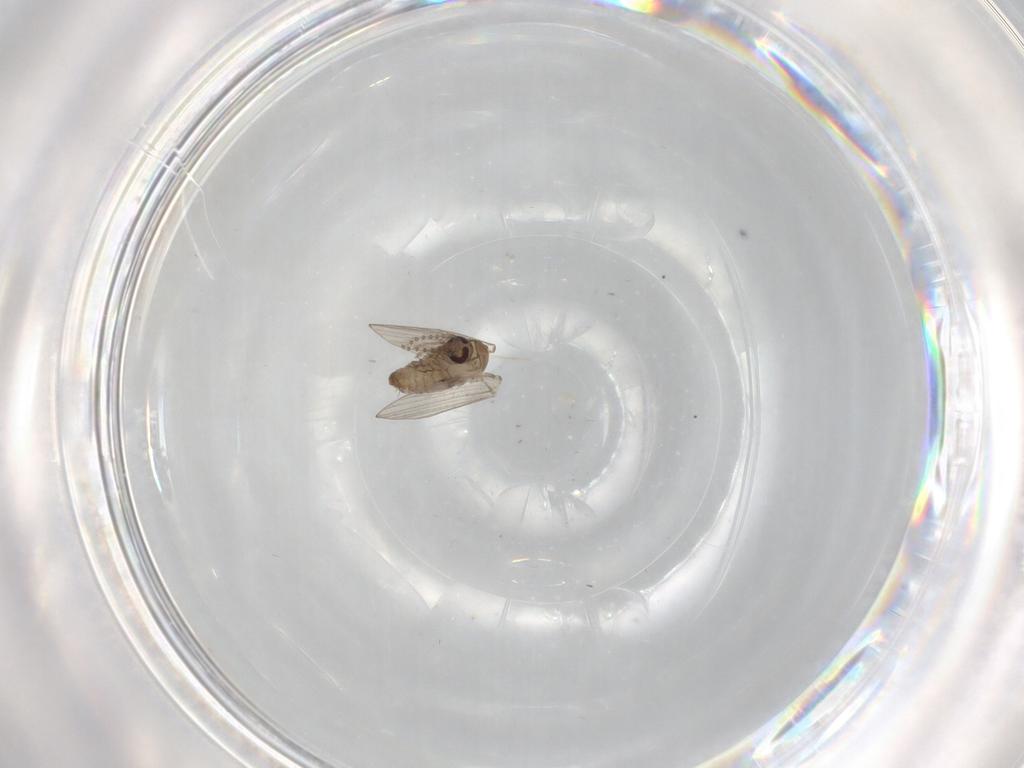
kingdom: Animalia
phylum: Arthropoda
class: Insecta
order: Diptera
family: Psychodidae
